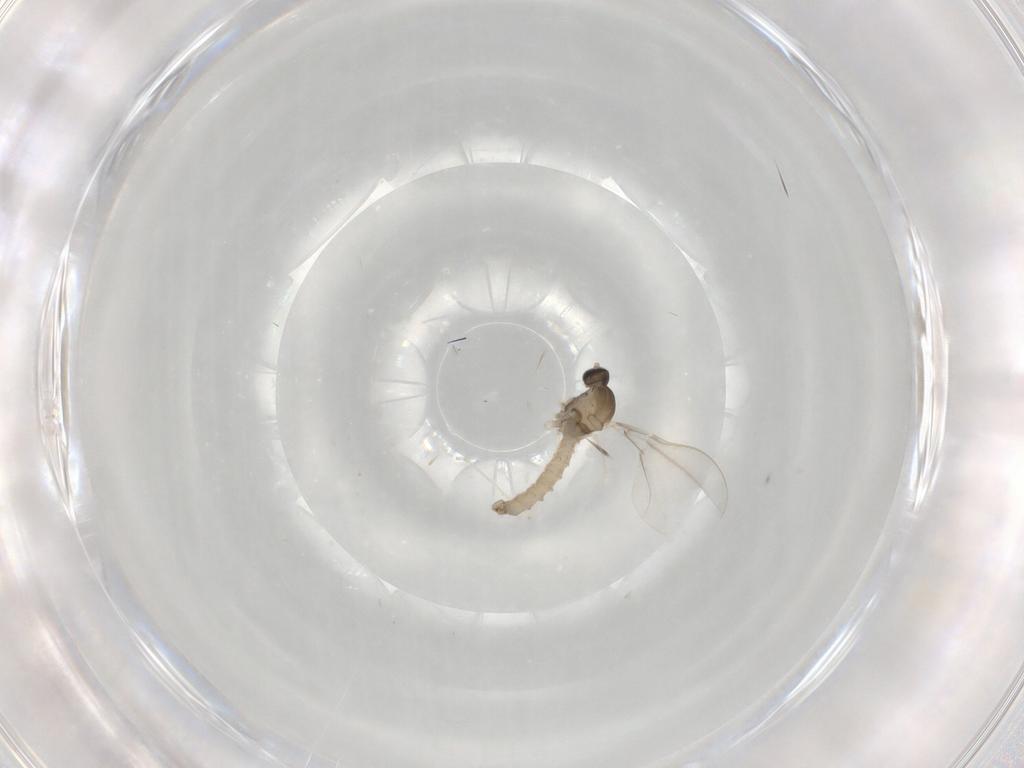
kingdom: Animalia
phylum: Arthropoda
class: Insecta
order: Diptera
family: Cecidomyiidae
